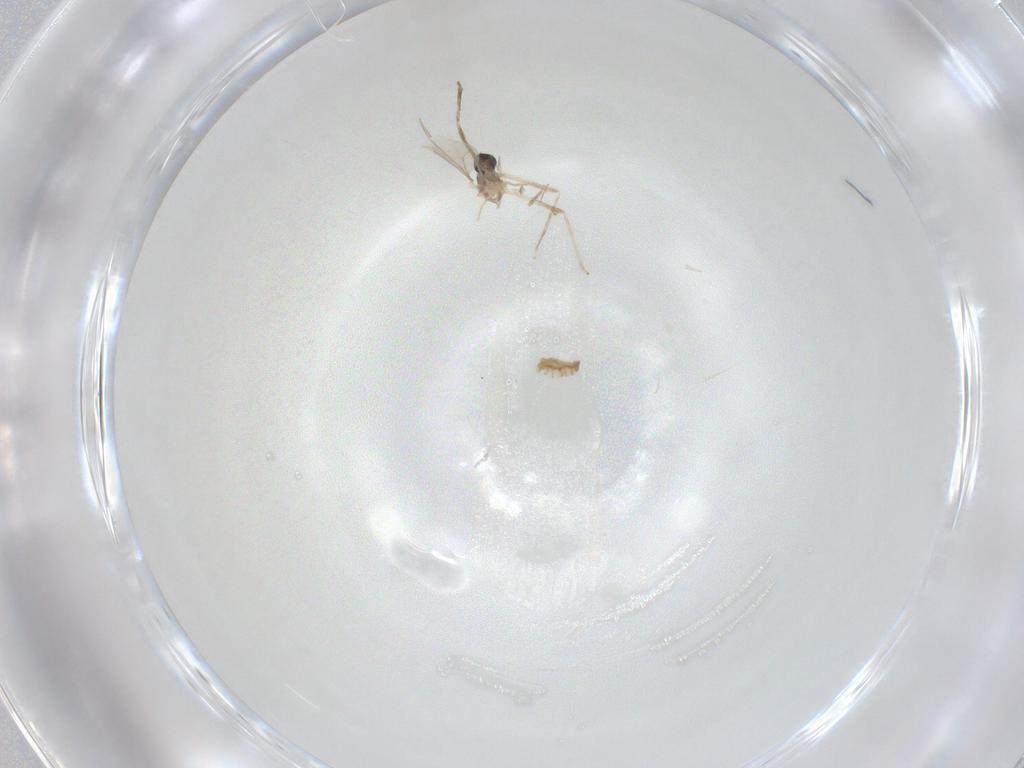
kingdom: Animalia
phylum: Arthropoda
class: Insecta
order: Diptera
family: Cecidomyiidae
